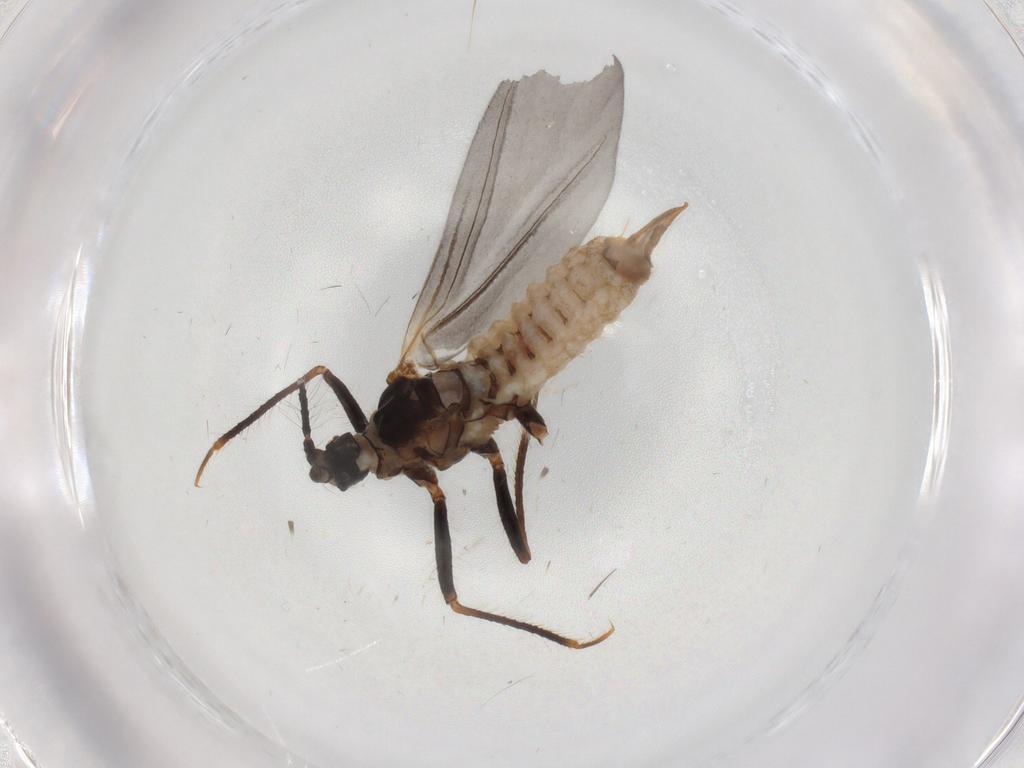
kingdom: Animalia
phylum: Arthropoda
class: Insecta
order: Hemiptera
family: Putoidae
